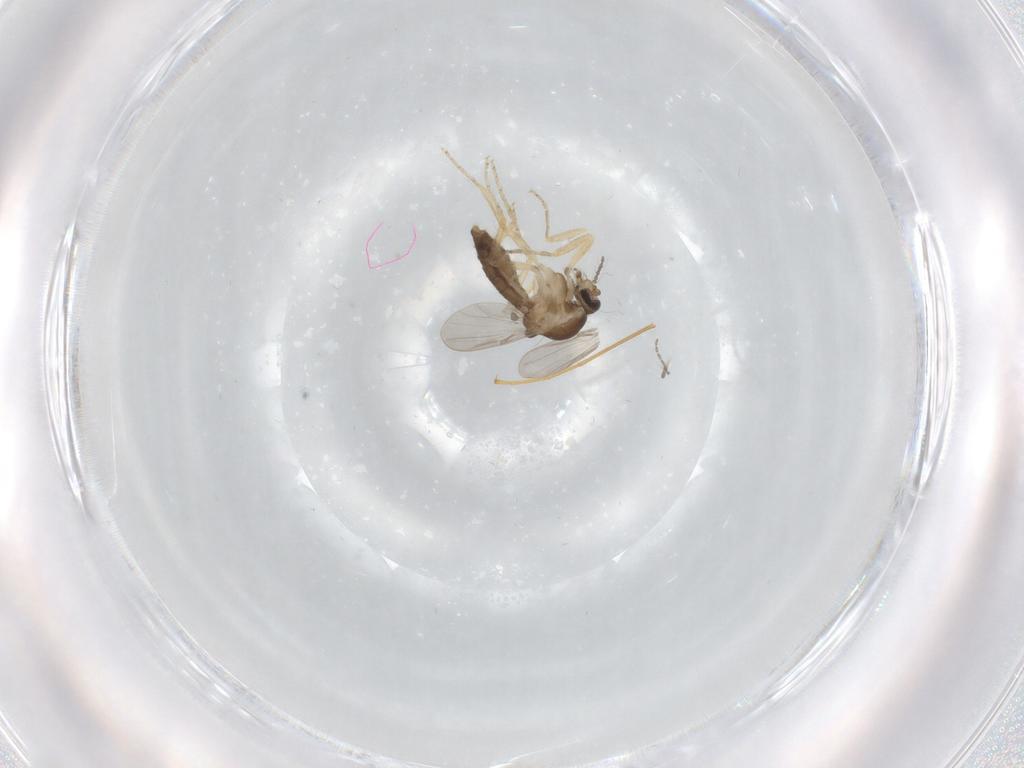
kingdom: Animalia
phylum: Arthropoda
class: Insecta
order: Diptera
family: Ceratopogonidae
